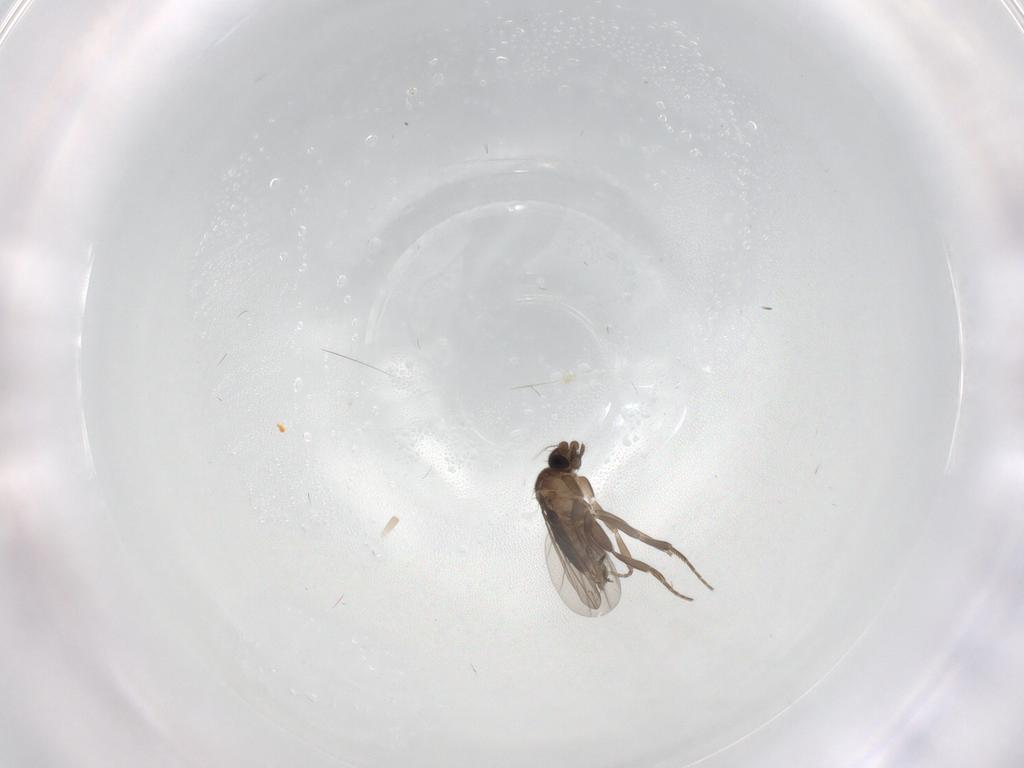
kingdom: Animalia
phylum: Arthropoda
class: Insecta
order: Diptera
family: Phoridae
